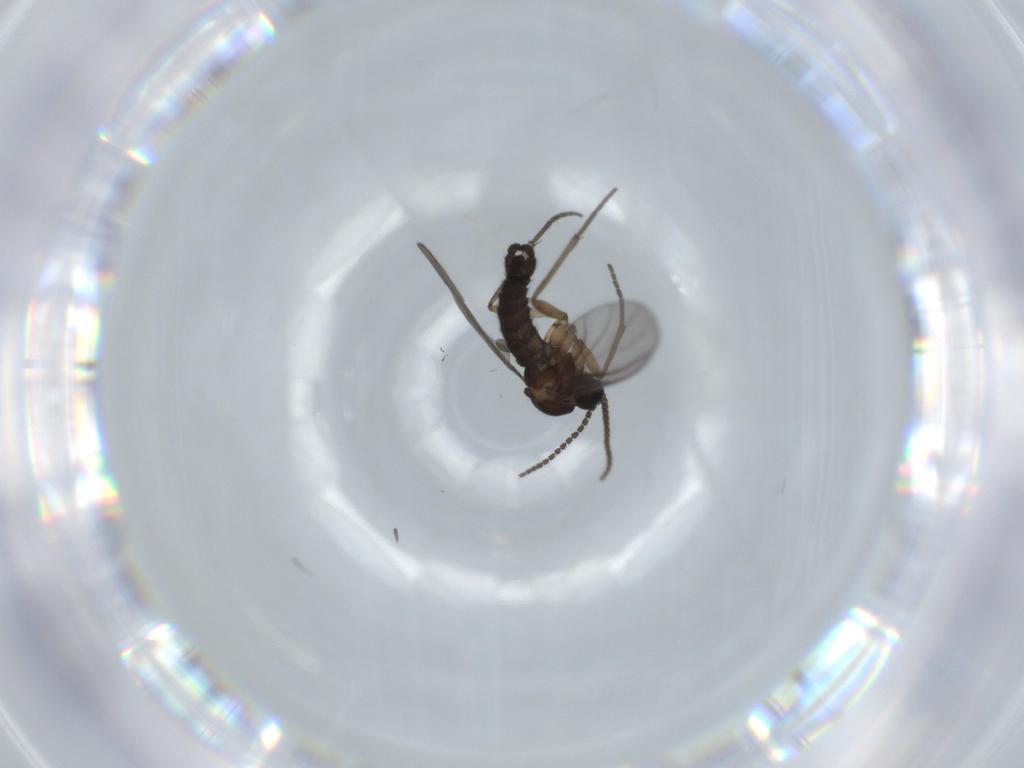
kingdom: Animalia
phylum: Arthropoda
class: Insecta
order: Diptera
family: Sciaridae
